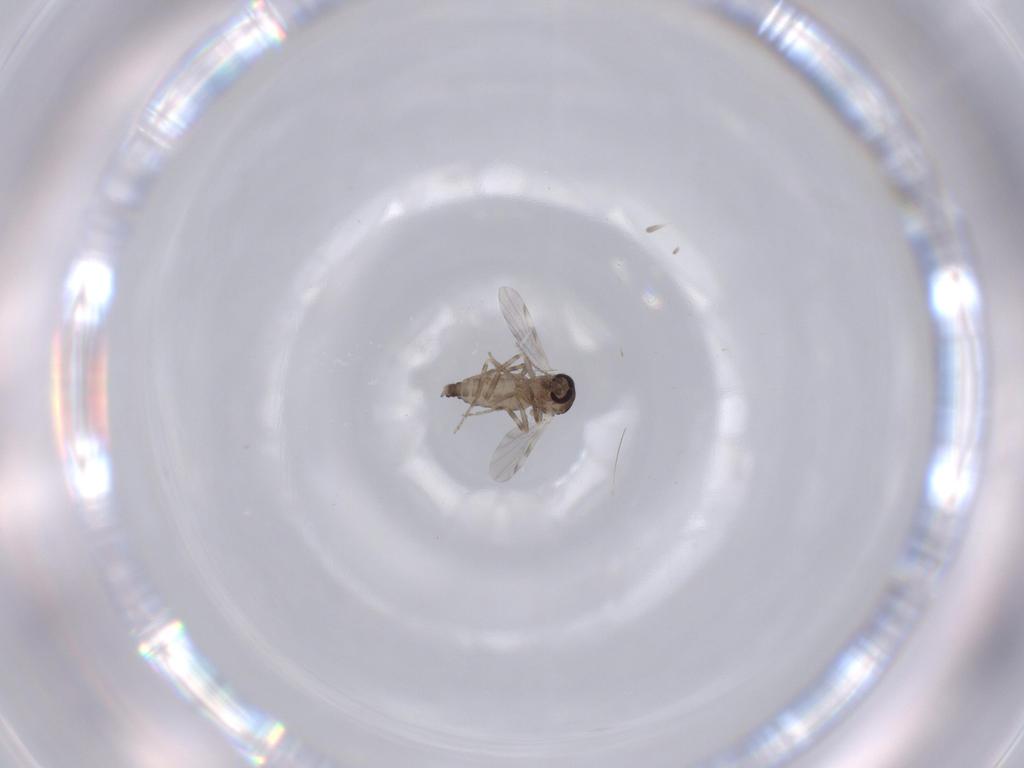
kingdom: Animalia
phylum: Arthropoda
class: Insecta
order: Diptera
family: Ceratopogonidae
